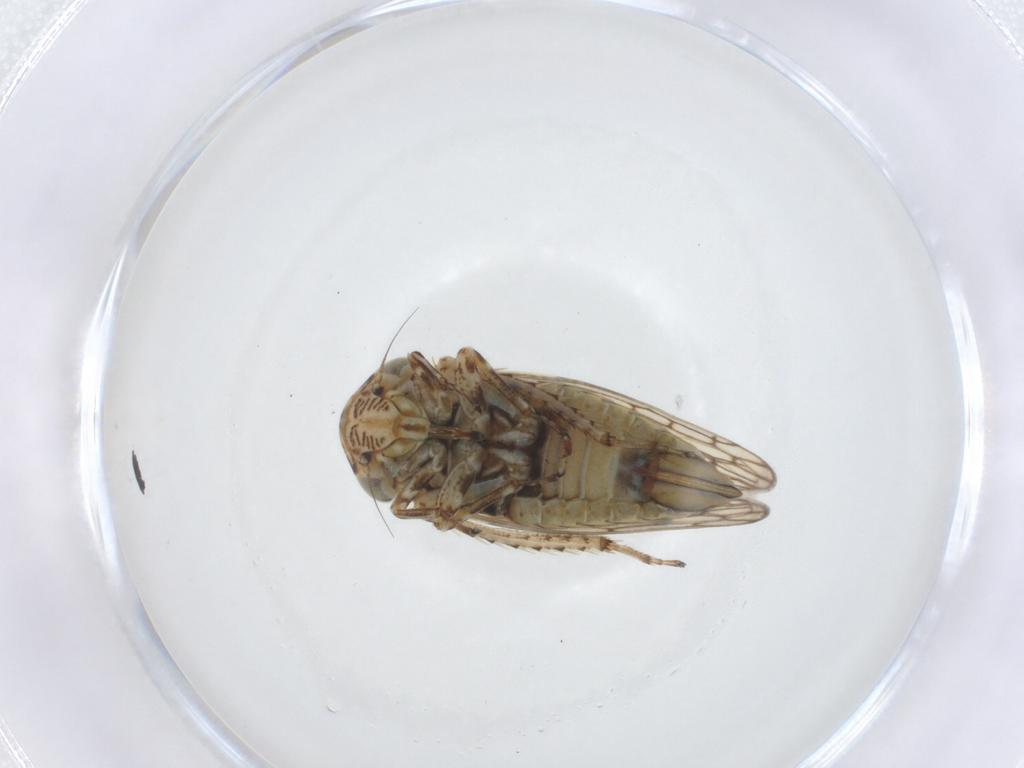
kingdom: Animalia
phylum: Arthropoda
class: Insecta
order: Hemiptera
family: Cicadellidae
